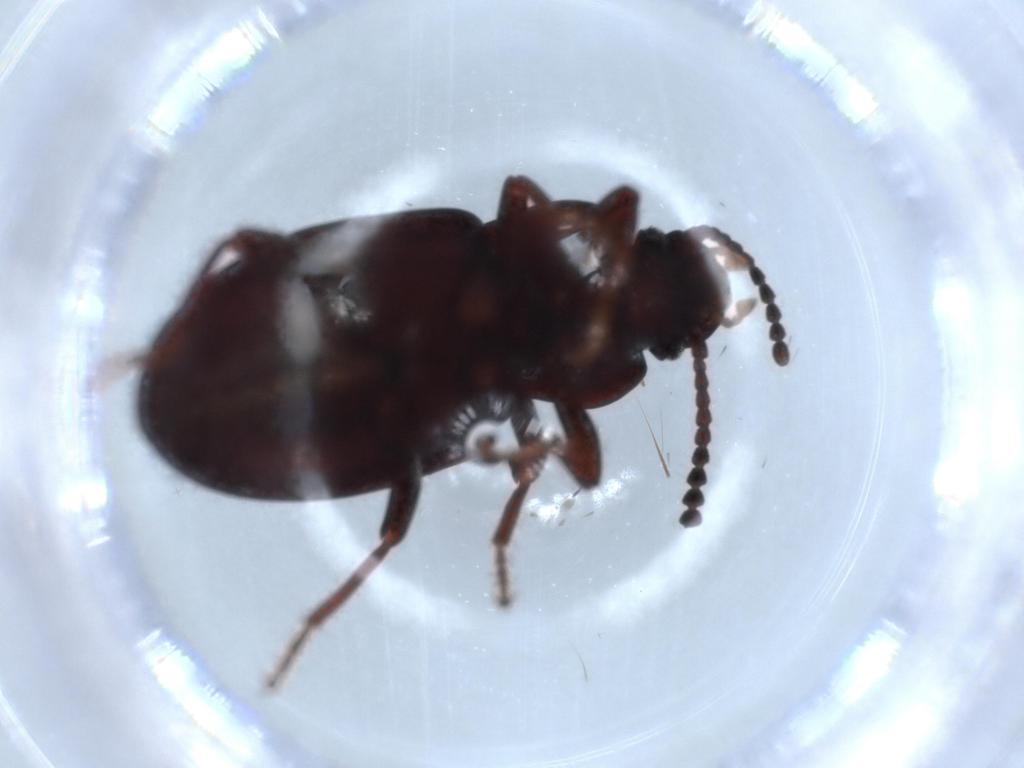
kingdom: Animalia
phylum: Arthropoda
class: Insecta
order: Coleoptera
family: Curculionidae
